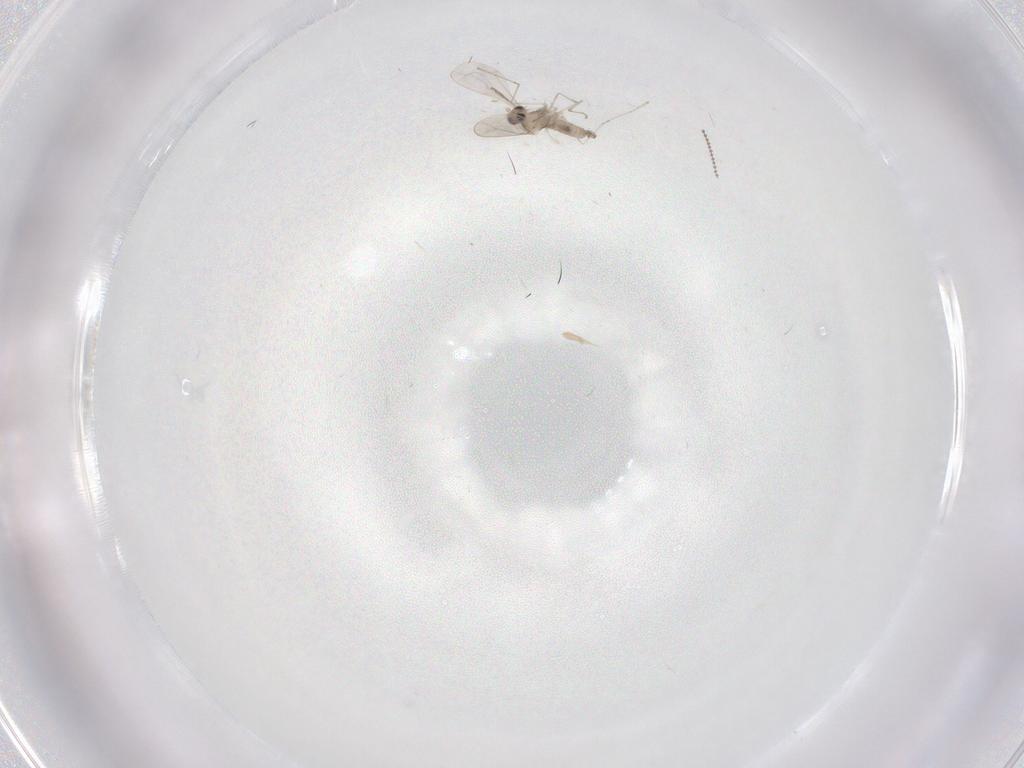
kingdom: Animalia
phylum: Arthropoda
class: Insecta
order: Diptera
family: Cecidomyiidae
